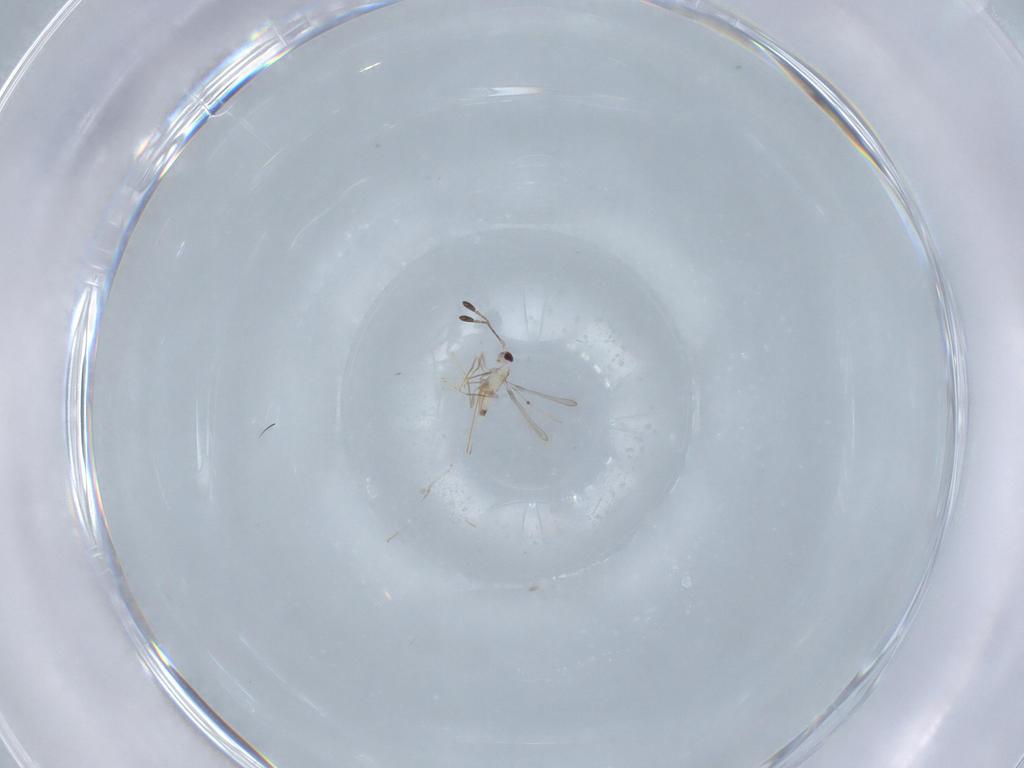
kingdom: Animalia
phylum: Arthropoda
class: Insecta
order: Hymenoptera
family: Mymaridae
